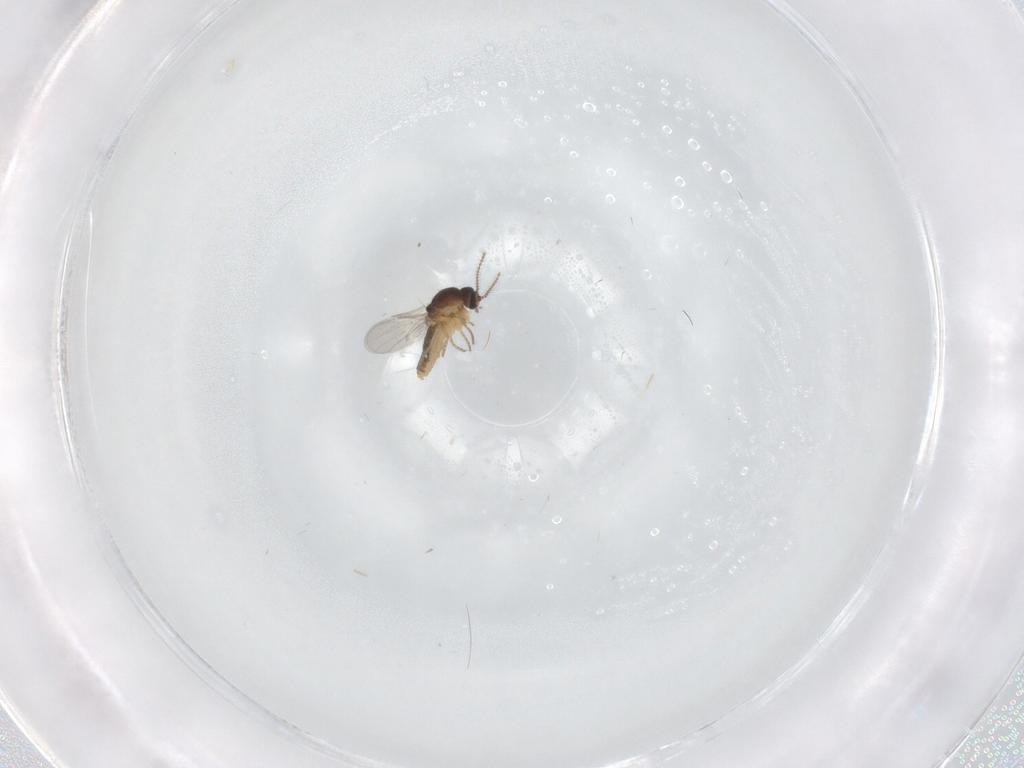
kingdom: Animalia
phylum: Arthropoda
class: Insecta
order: Diptera
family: Ceratopogonidae
